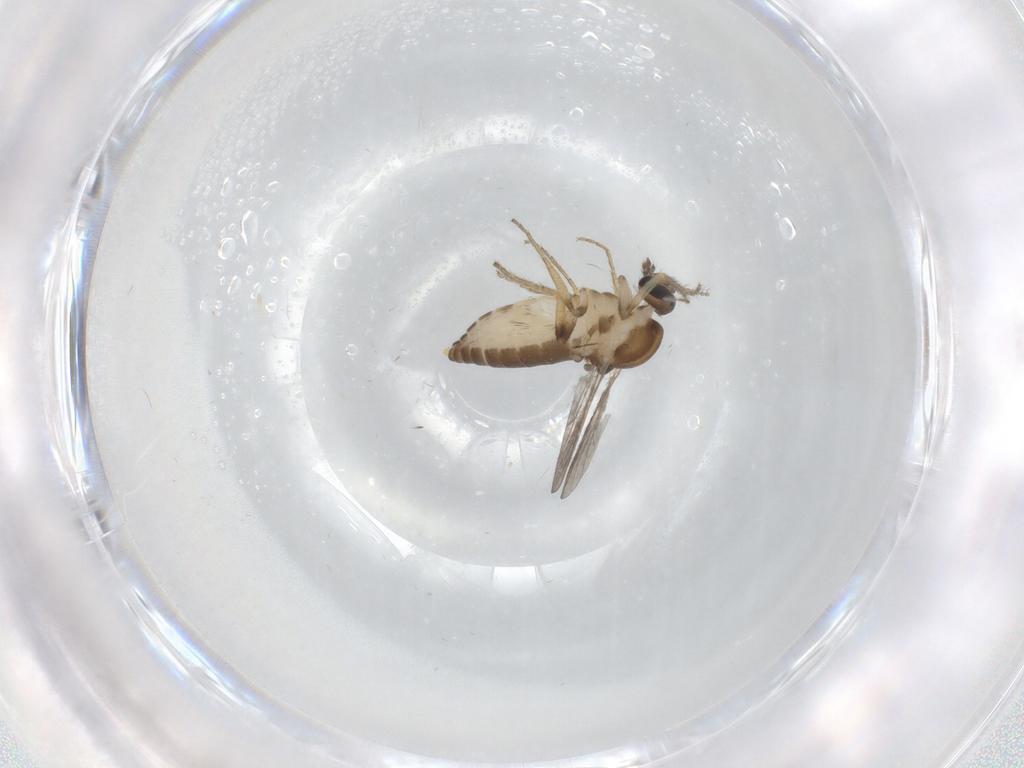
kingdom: Animalia
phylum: Arthropoda
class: Insecta
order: Diptera
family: Ceratopogonidae
